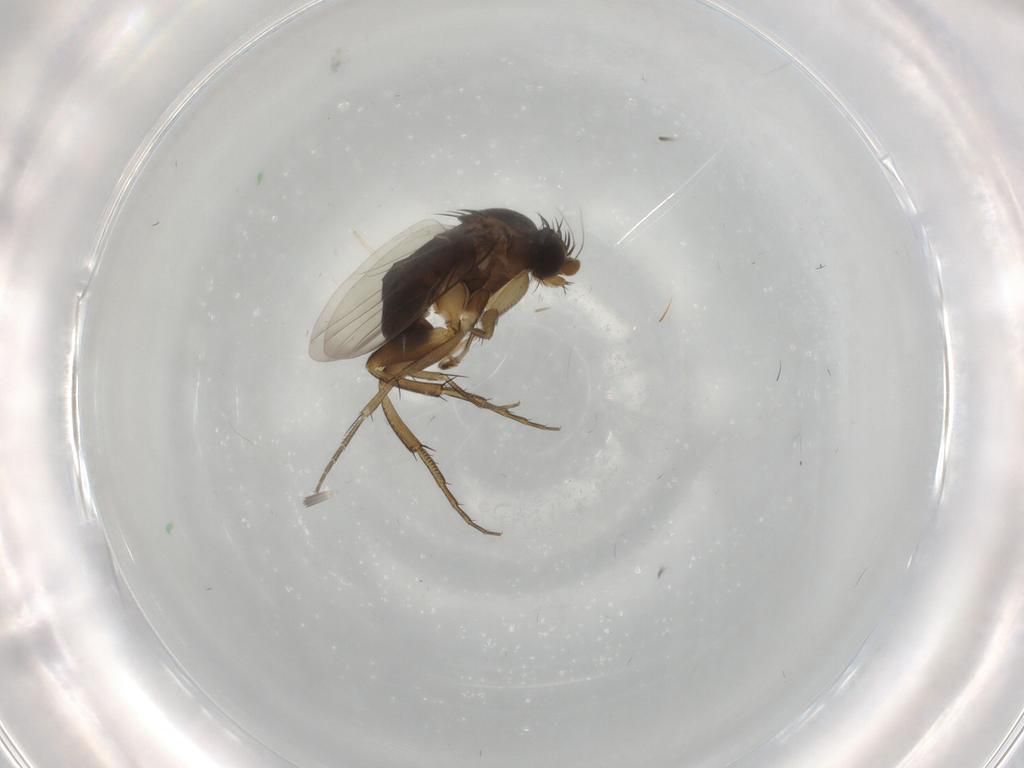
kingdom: Animalia
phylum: Arthropoda
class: Insecta
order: Diptera
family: Phoridae
